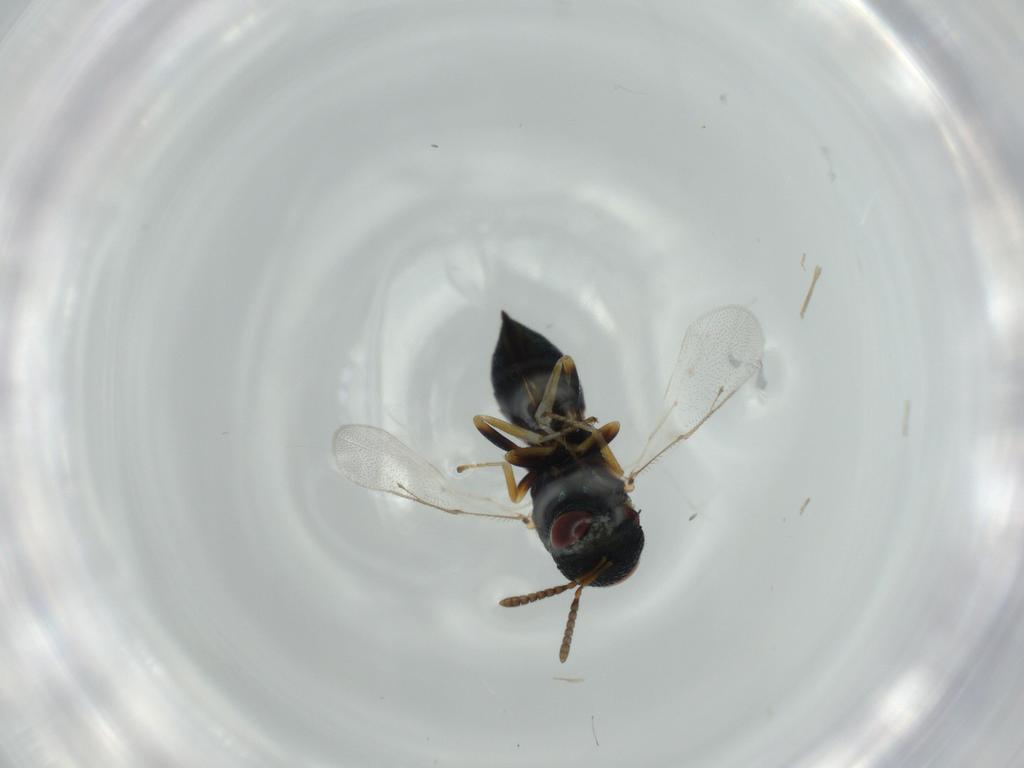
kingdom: Animalia
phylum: Arthropoda
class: Insecta
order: Hymenoptera
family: Pteromalidae
